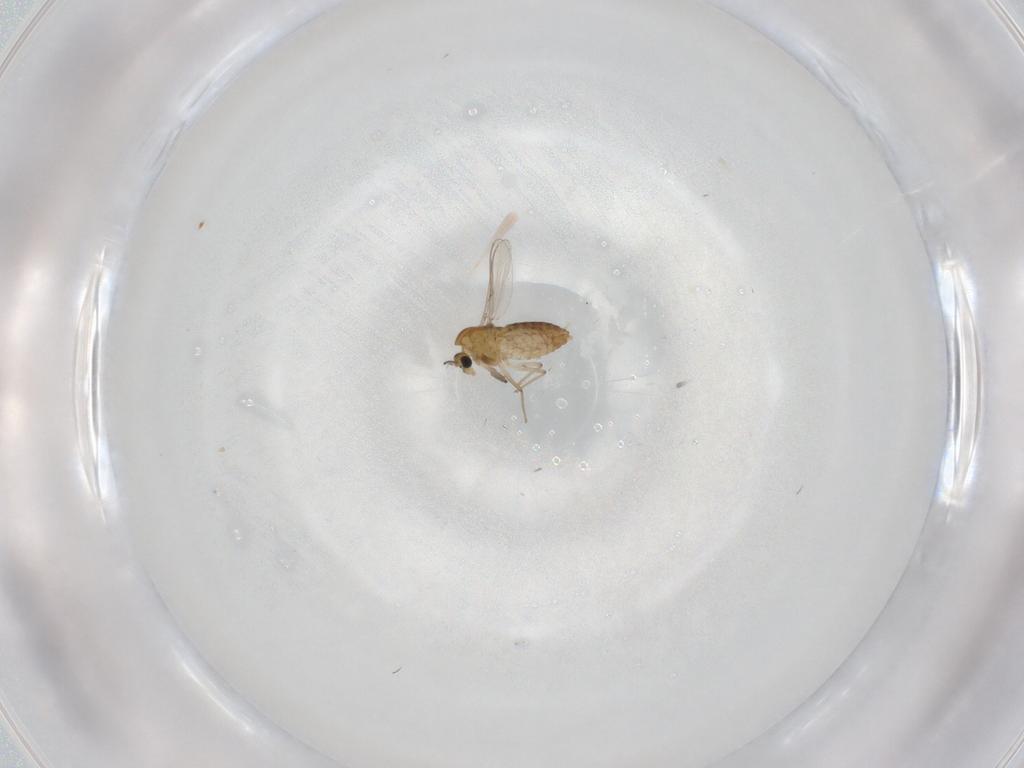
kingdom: Animalia
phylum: Arthropoda
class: Insecta
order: Diptera
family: Chironomidae
